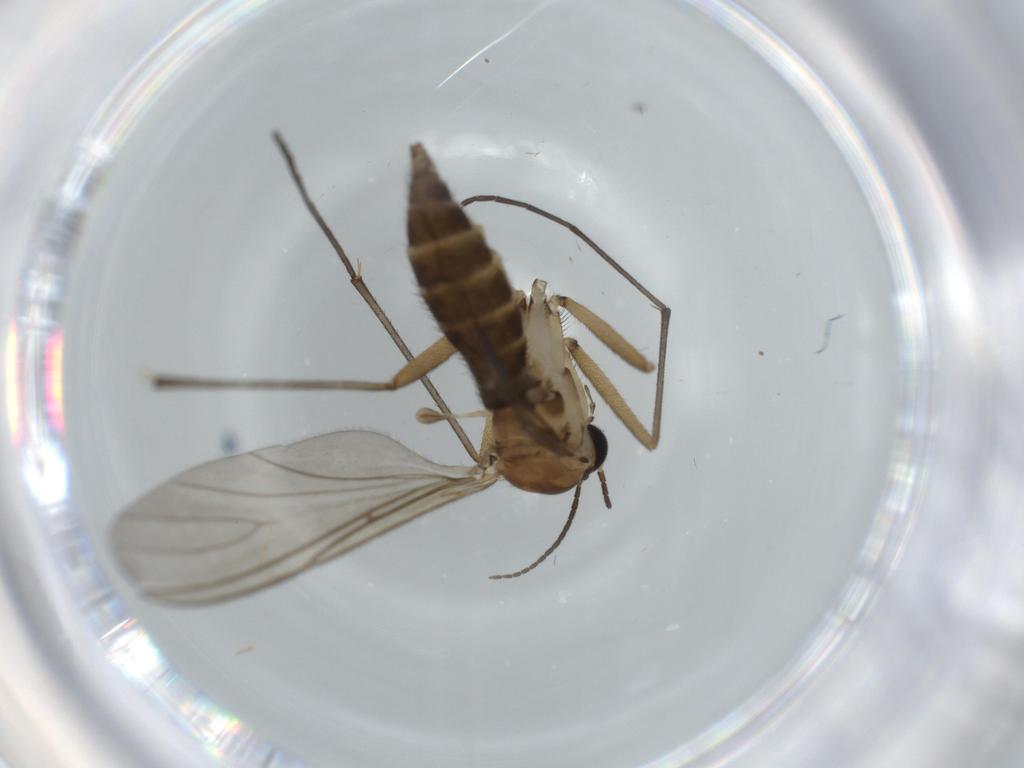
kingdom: Animalia
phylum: Arthropoda
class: Insecta
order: Diptera
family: Sciaridae
